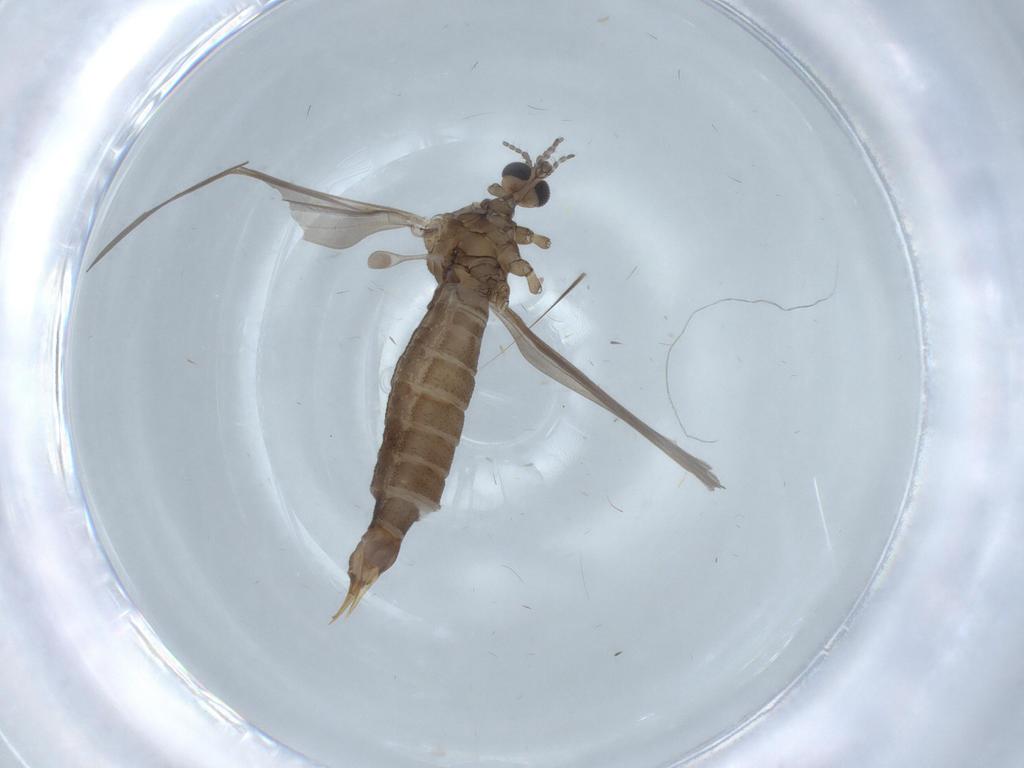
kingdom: Animalia
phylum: Arthropoda
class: Insecta
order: Diptera
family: Limoniidae
